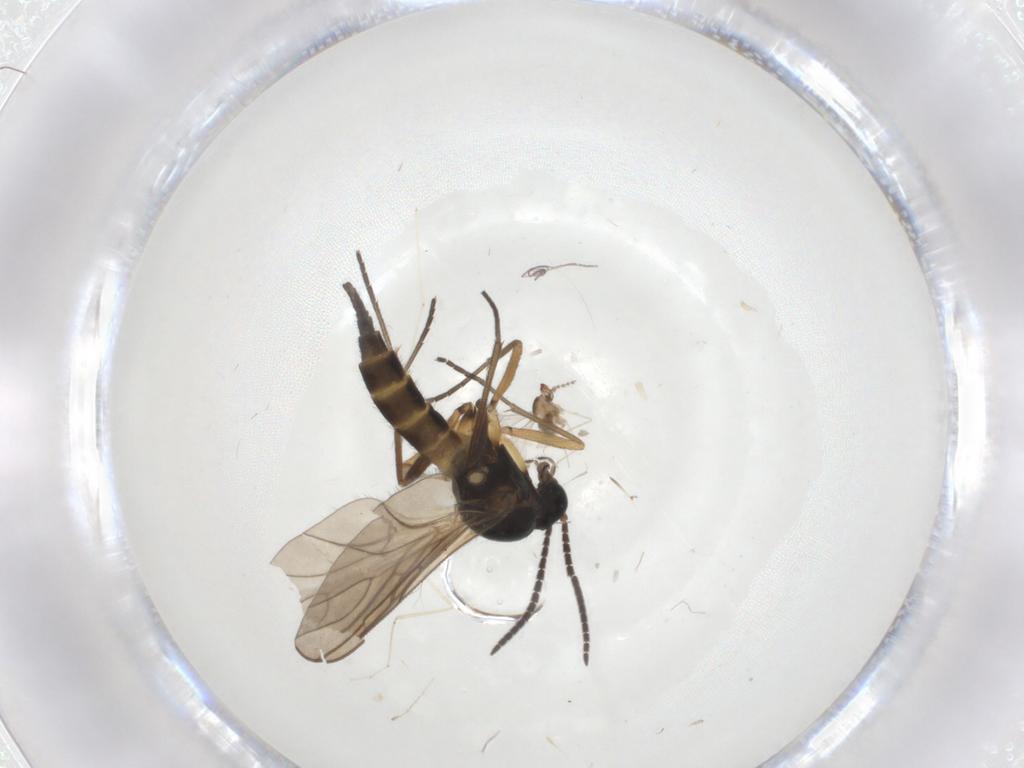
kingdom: Animalia
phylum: Arthropoda
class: Insecta
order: Diptera
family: Sciaridae
